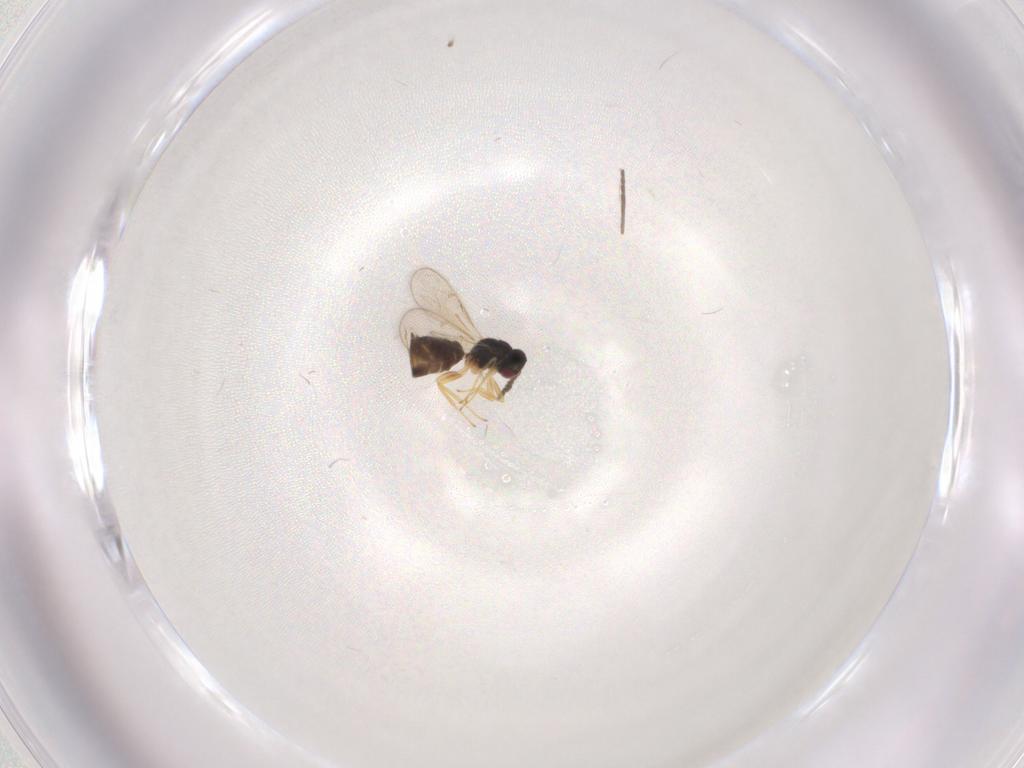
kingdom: Animalia
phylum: Arthropoda
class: Insecta
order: Hymenoptera
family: Tetracampidae
